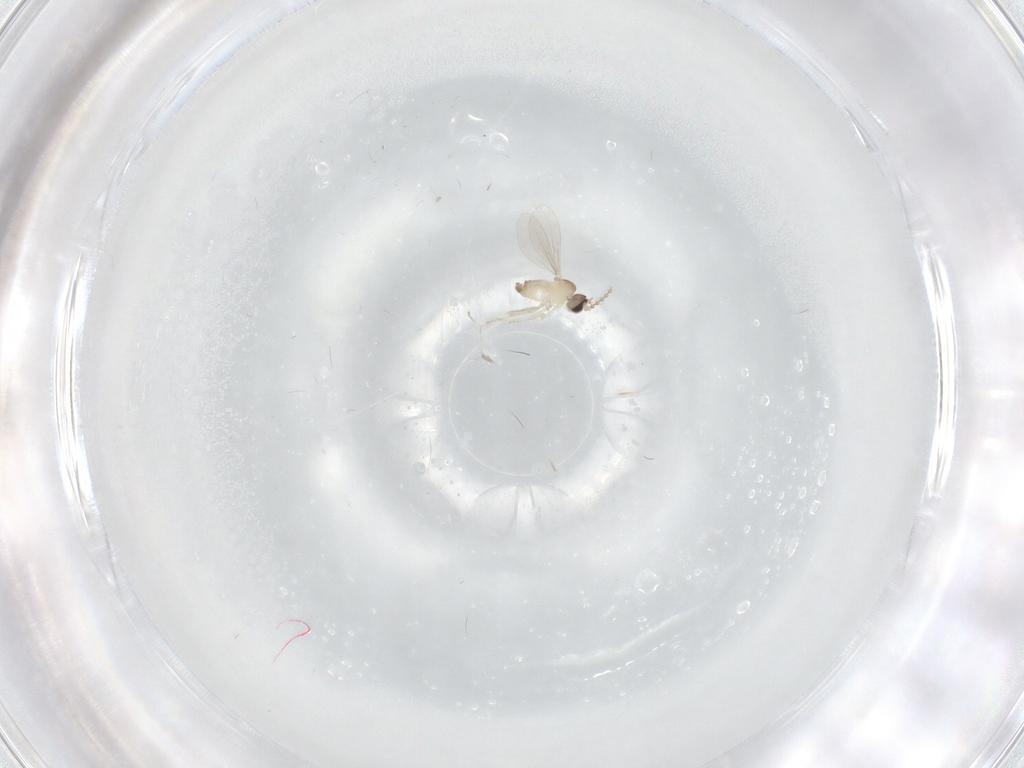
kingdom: Animalia
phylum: Arthropoda
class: Insecta
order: Diptera
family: Cecidomyiidae
